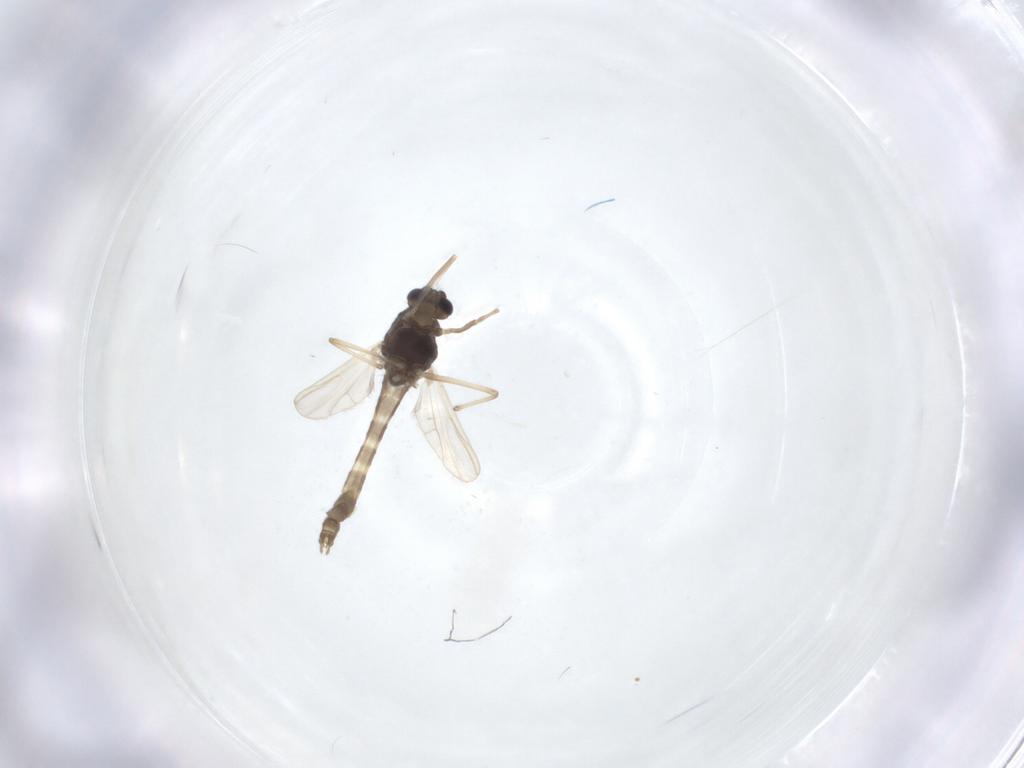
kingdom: Animalia
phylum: Arthropoda
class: Insecta
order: Diptera
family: Chironomidae
